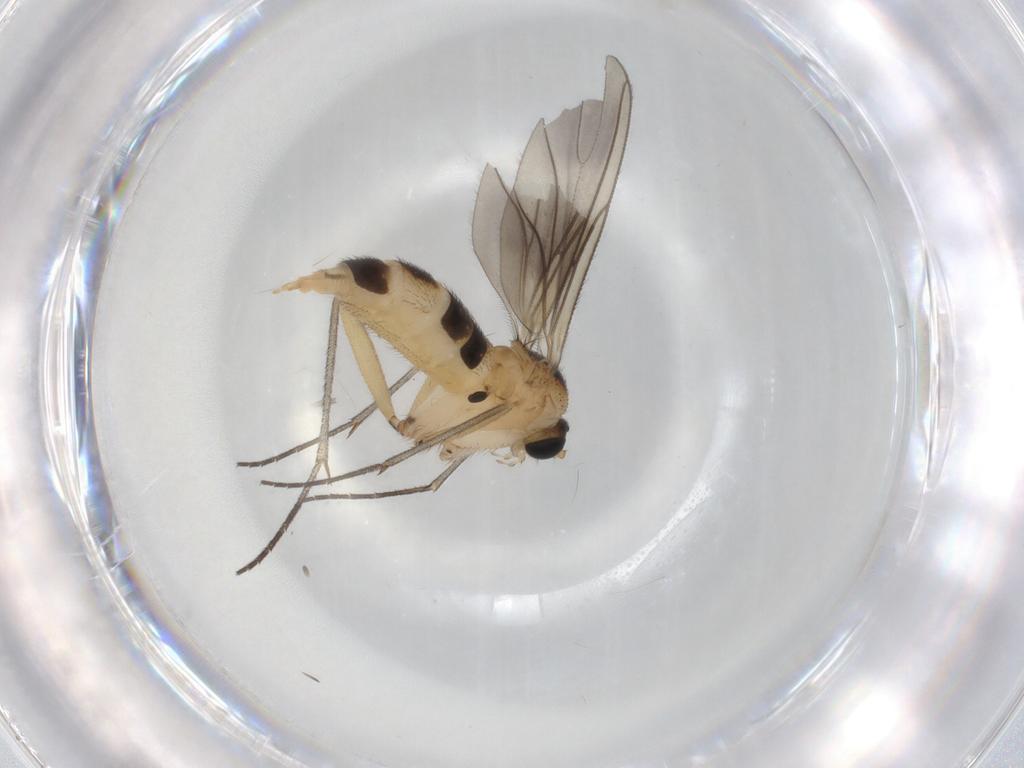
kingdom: Animalia
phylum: Arthropoda
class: Insecta
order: Diptera
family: Sciaridae
